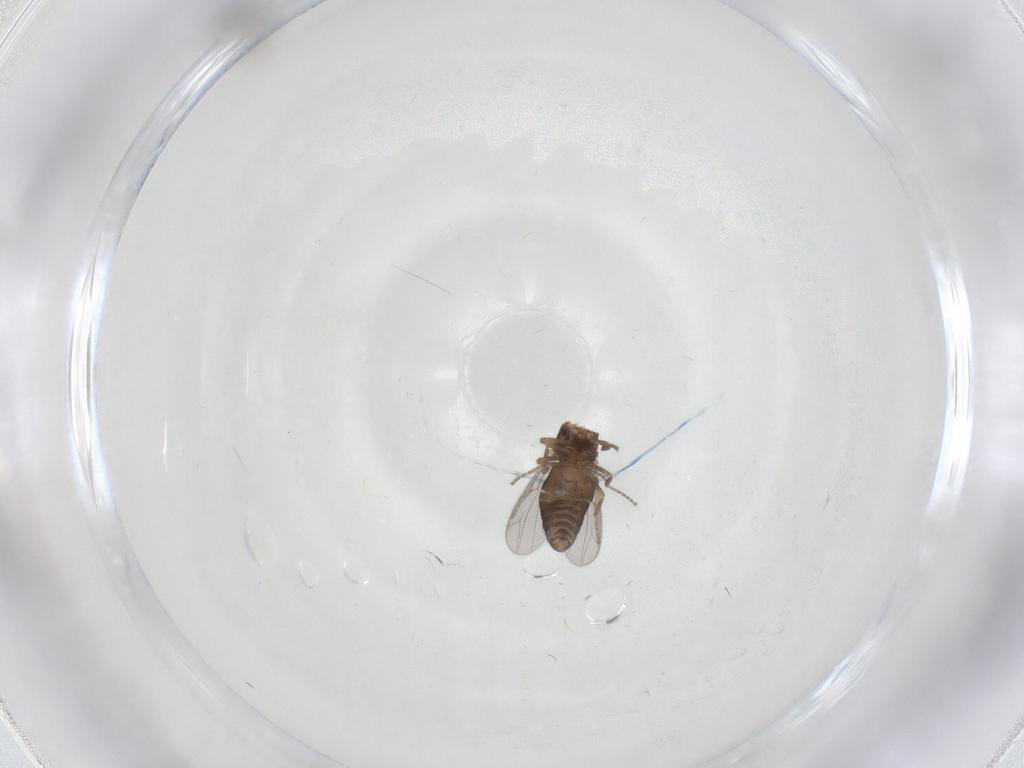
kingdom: Animalia
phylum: Arthropoda
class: Insecta
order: Diptera
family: Ceratopogonidae
